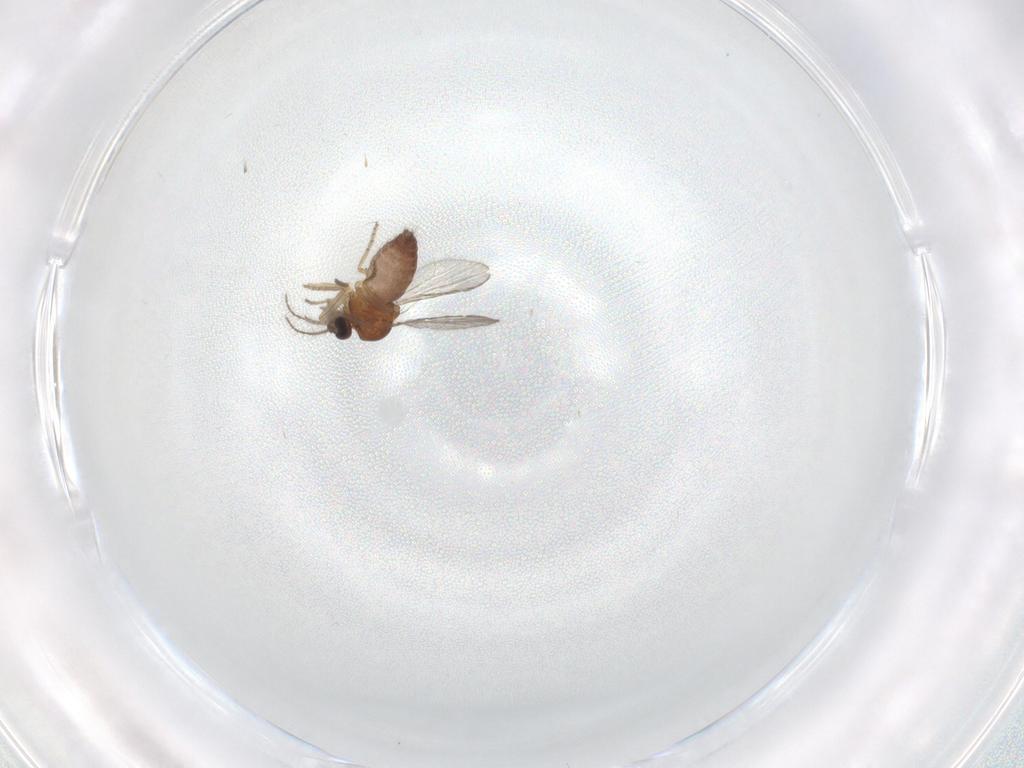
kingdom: Animalia
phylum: Arthropoda
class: Insecta
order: Diptera
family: Ceratopogonidae
